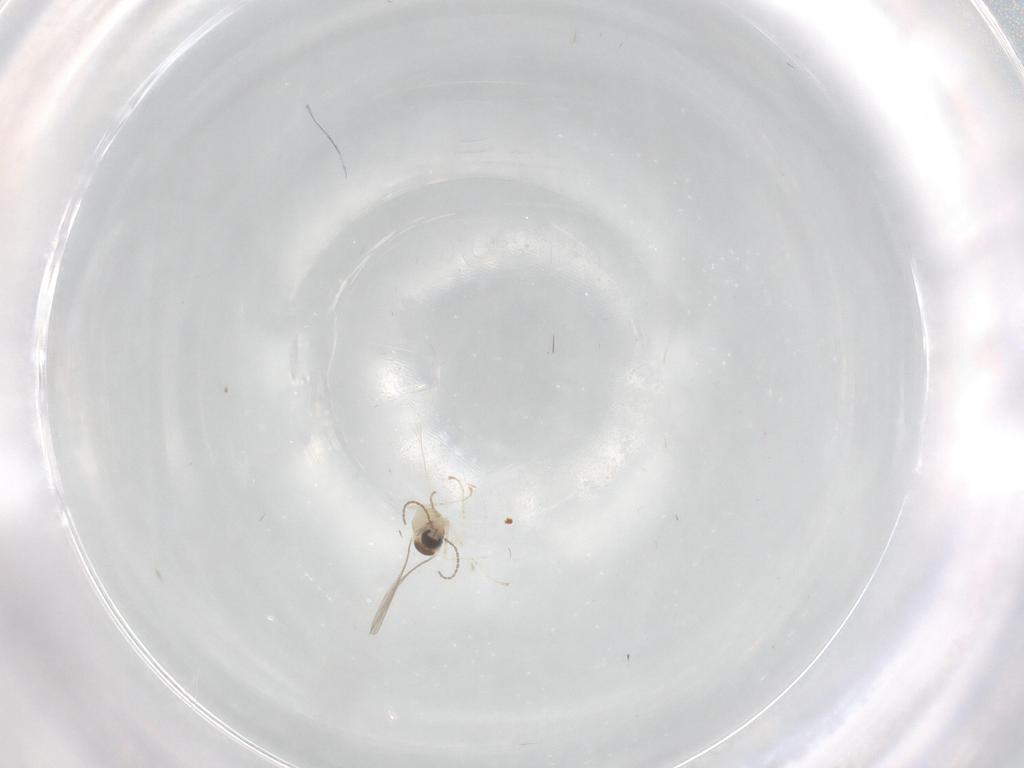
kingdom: Animalia
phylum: Arthropoda
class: Insecta
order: Diptera
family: Cecidomyiidae
